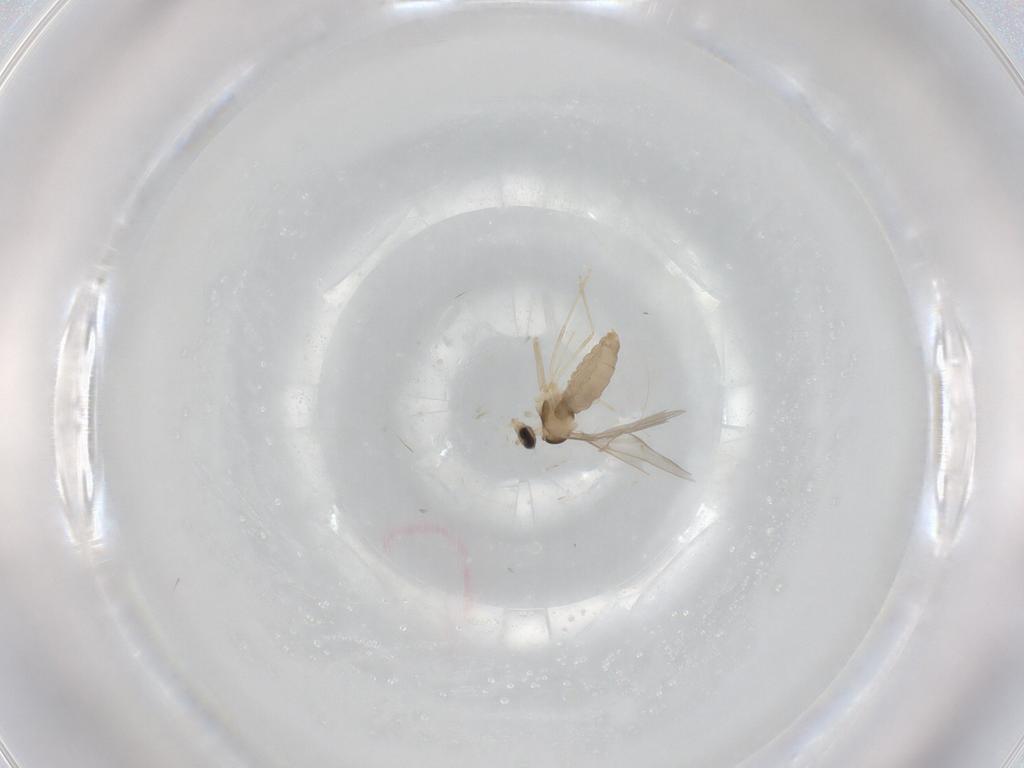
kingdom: Animalia
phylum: Arthropoda
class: Insecta
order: Diptera
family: Cecidomyiidae
